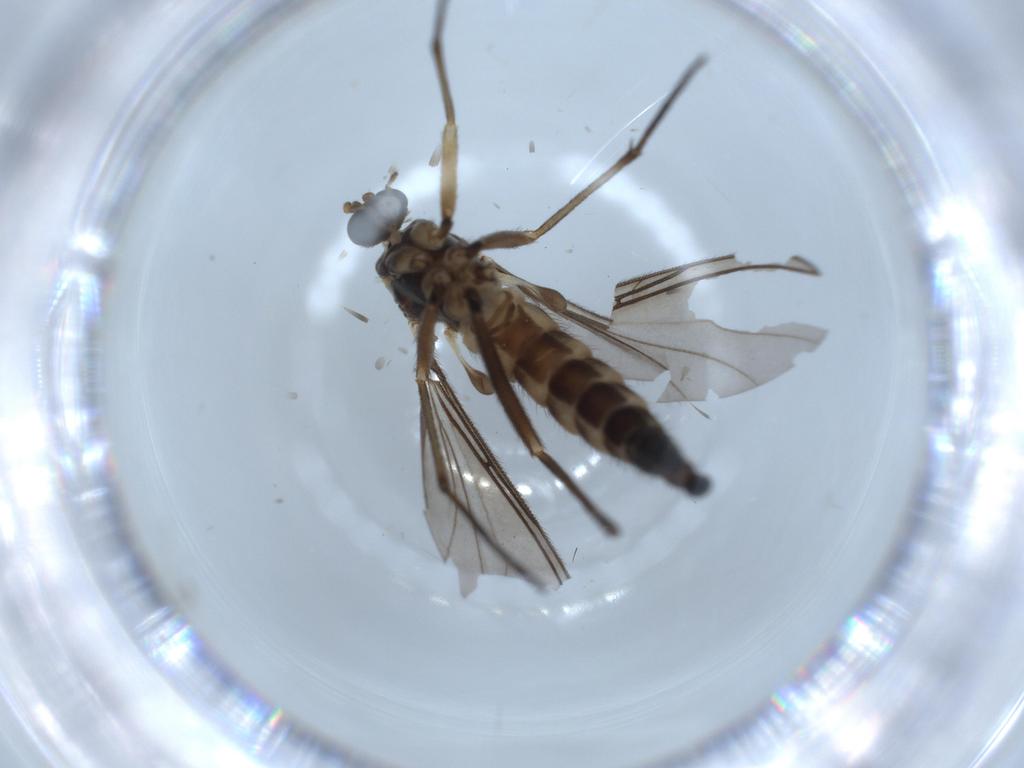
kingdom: Animalia
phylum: Arthropoda
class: Insecta
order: Diptera
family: Sciaridae
